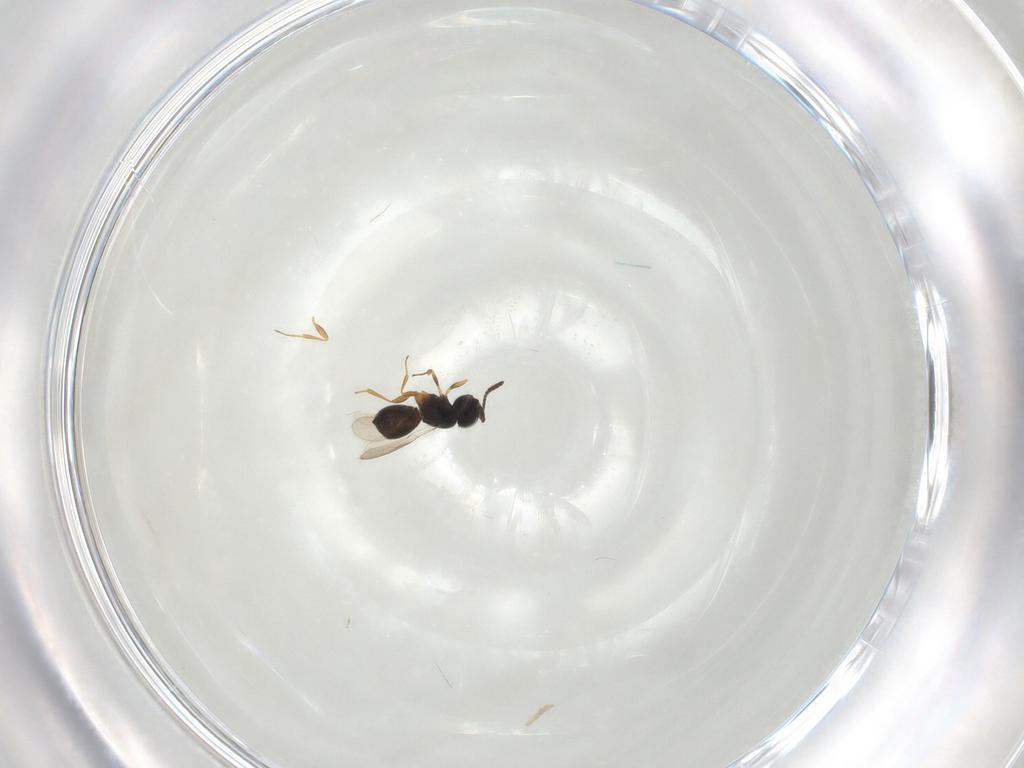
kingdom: Animalia
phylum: Arthropoda
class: Insecta
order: Hymenoptera
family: Scelionidae
